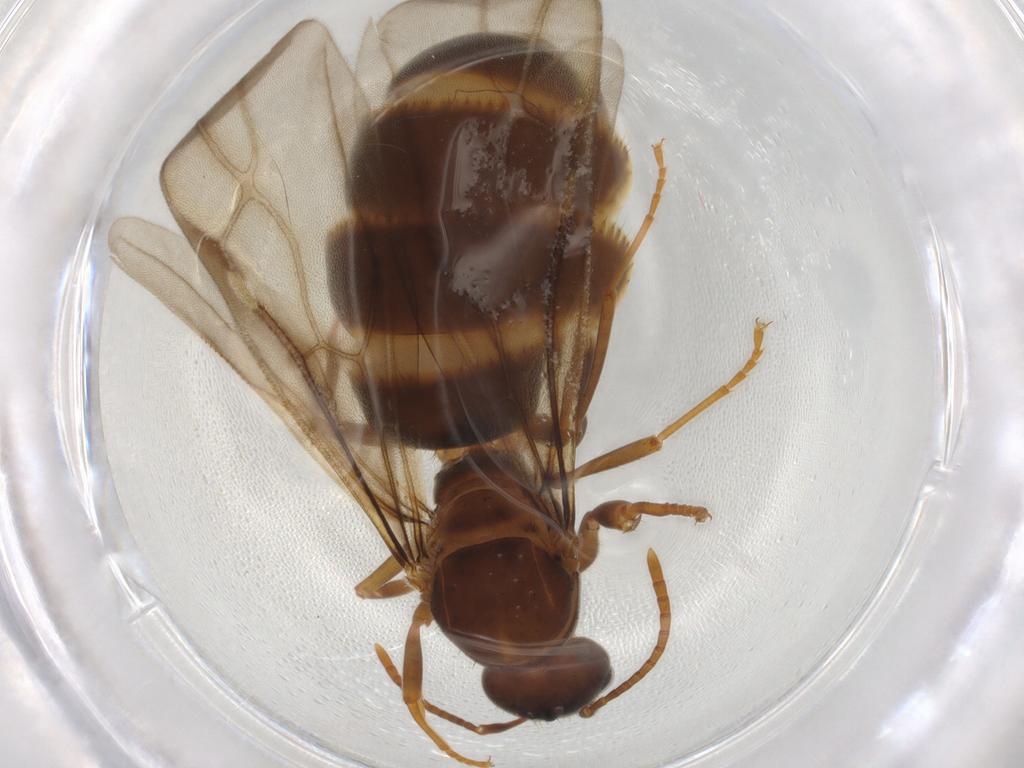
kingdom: Animalia
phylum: Arthropoda
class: Insecta
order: Hymenoptera
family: Formicidae
